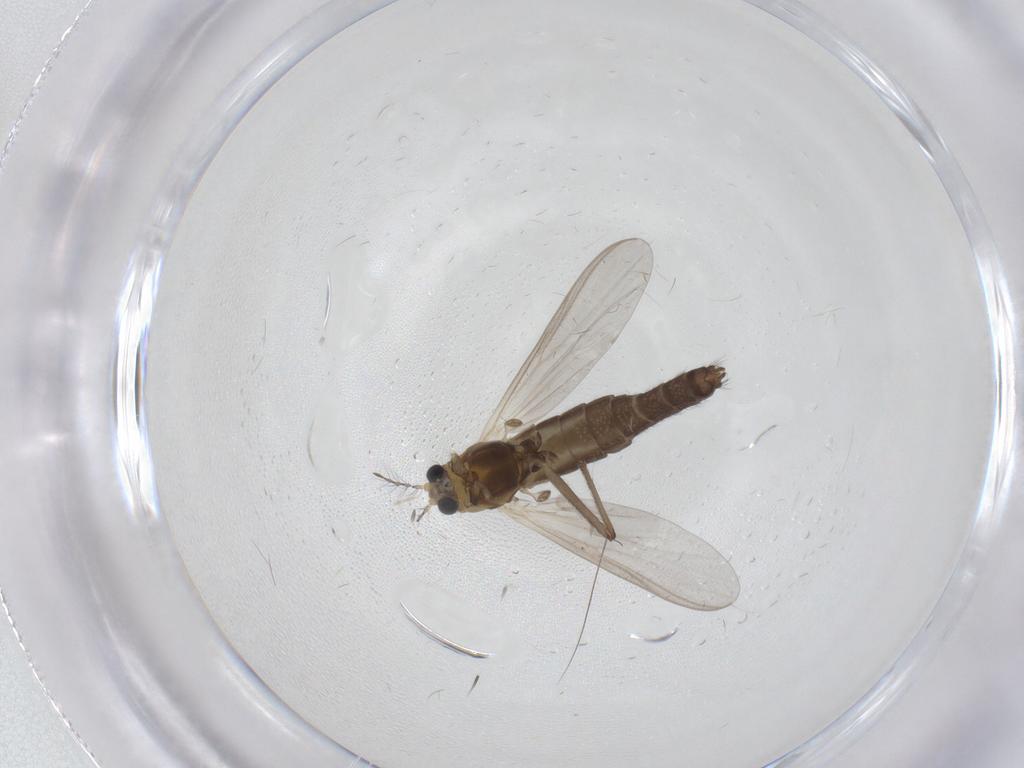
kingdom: Animalia
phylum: Arthropoda
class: Insecta
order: Diptera
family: Chironomidae
